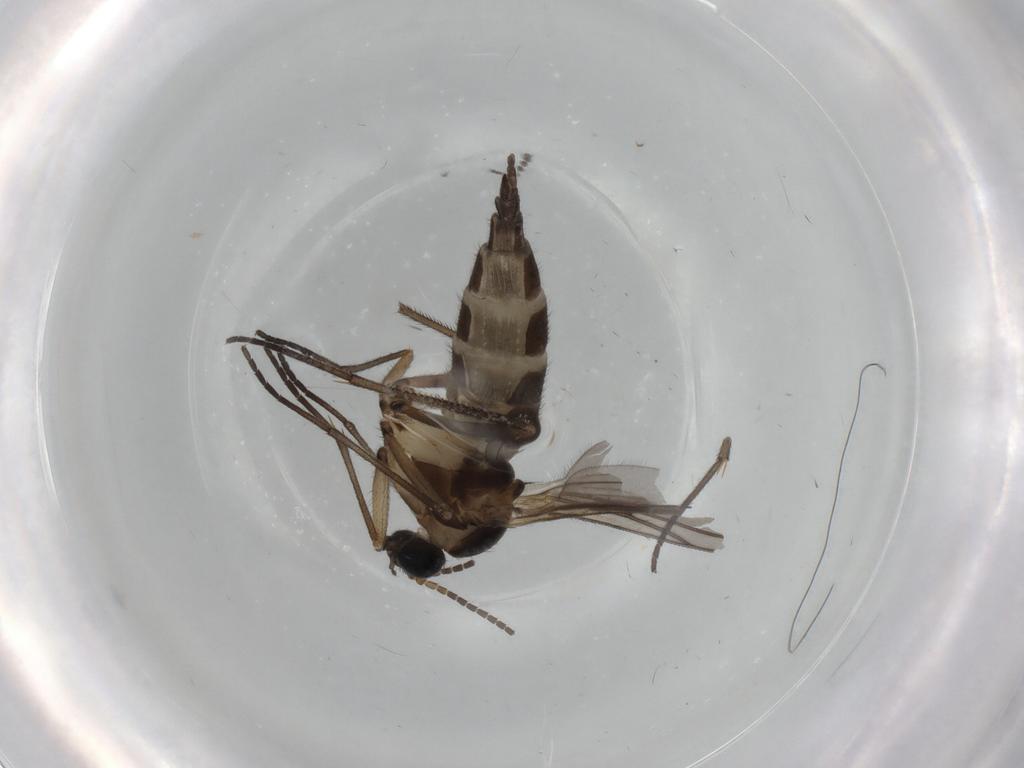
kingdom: Animalia
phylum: Arthropoda
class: Insecta
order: Diptera
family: Sciaridae
